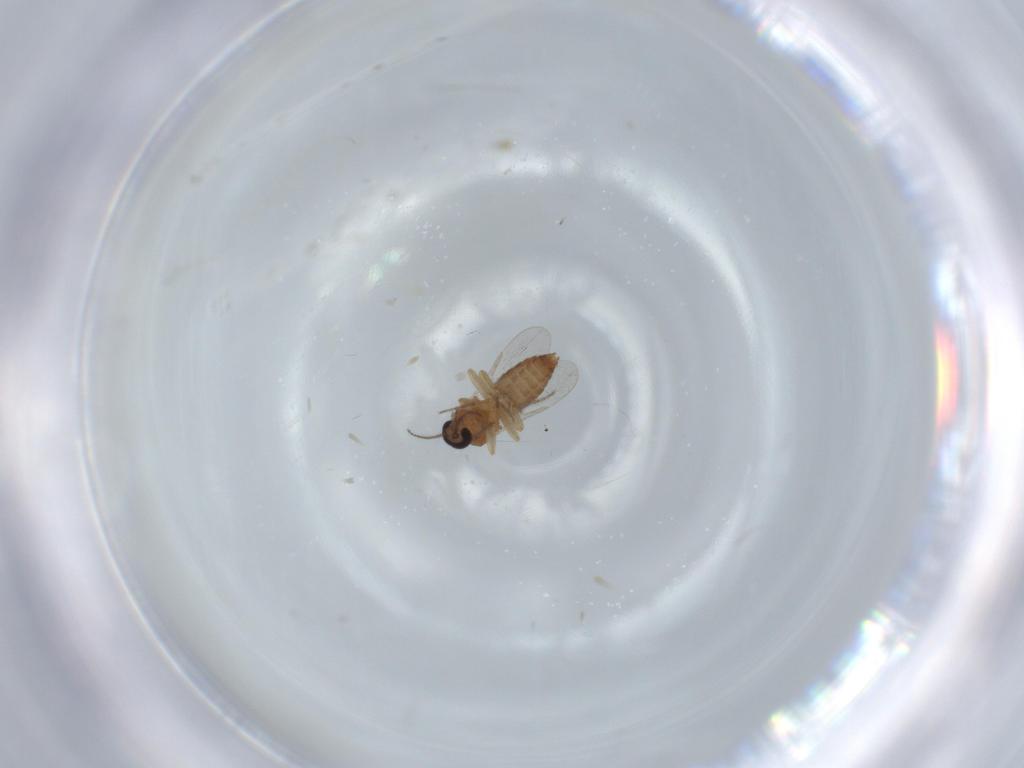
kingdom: Animalia
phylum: Arthropoda
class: Insecta
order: Diptera
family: Ceratopogonidae
